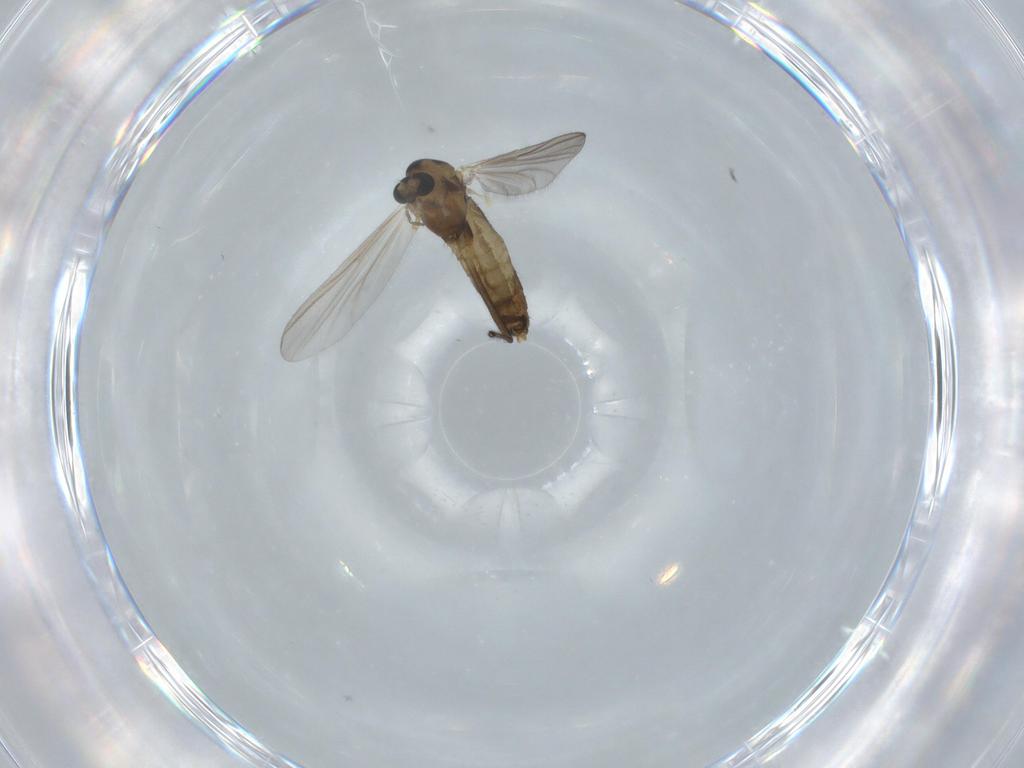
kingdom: Animalia
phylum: Arthropoda
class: Insecta
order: Diptera
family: Chironomidae
